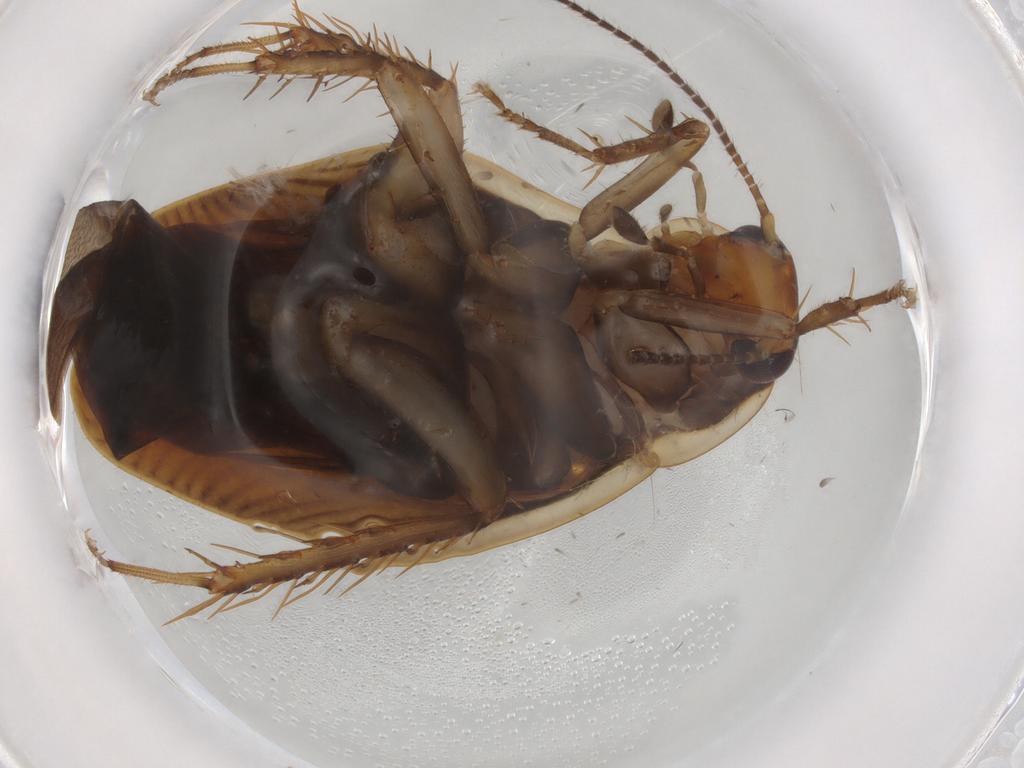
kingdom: Animalia
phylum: Arthropoda
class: Insecta
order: Blattodea
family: Ectobiidae
